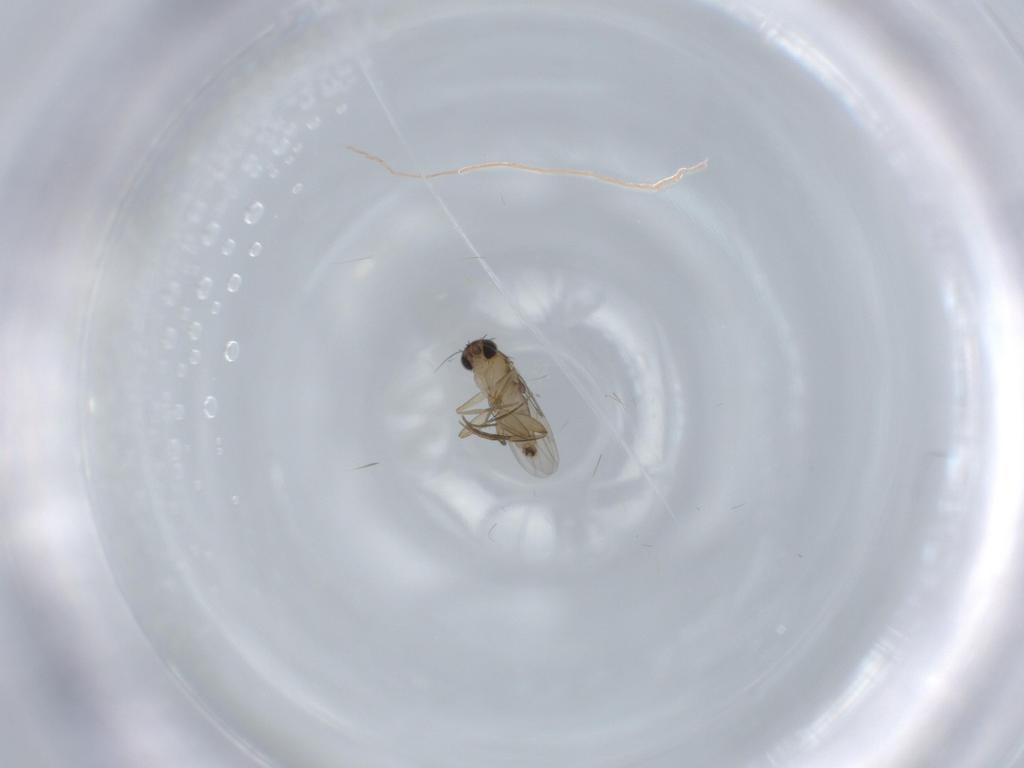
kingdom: Animalia
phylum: Arthropoda
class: Insecta
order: Diptera
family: Phoridae
